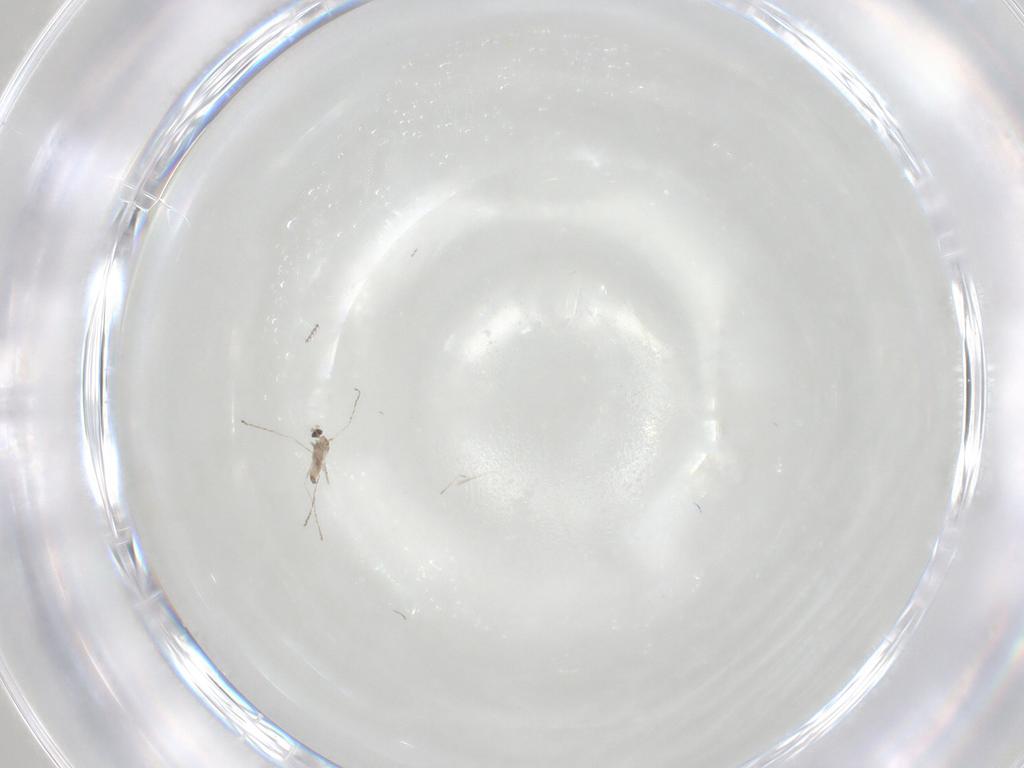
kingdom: Animalia
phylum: Arthropoda
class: Insecta
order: Diptera
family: Cecidomyiidae
